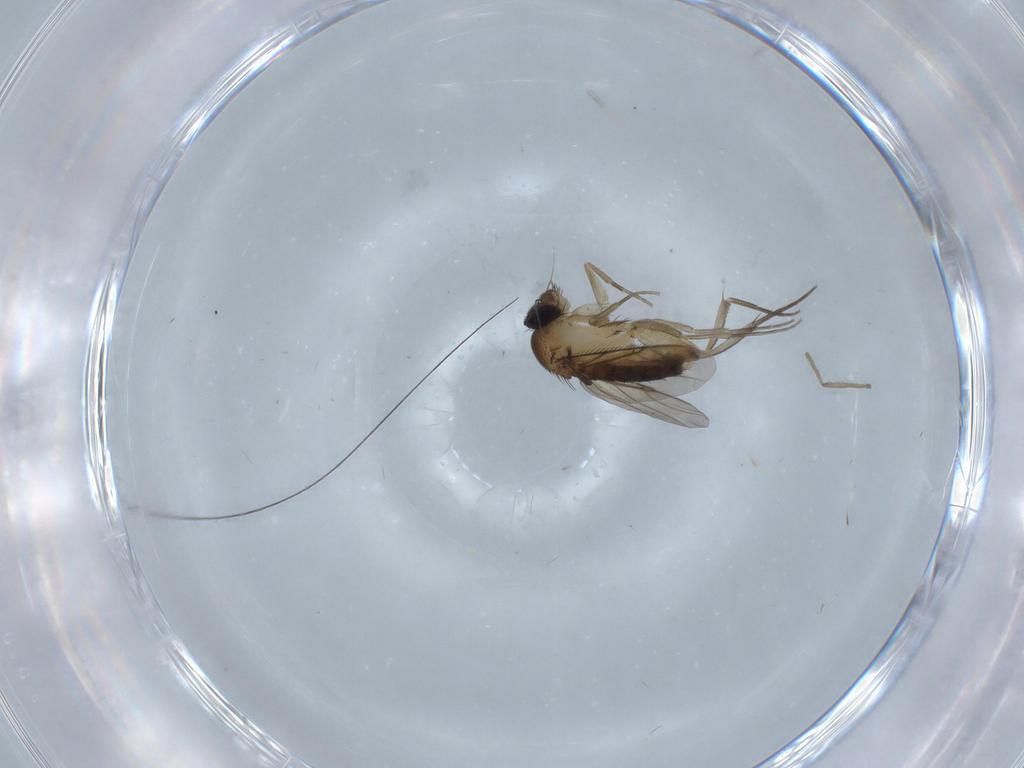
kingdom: Animalia
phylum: Arthropoda
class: Insecta
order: Diptera
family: Phoridae
